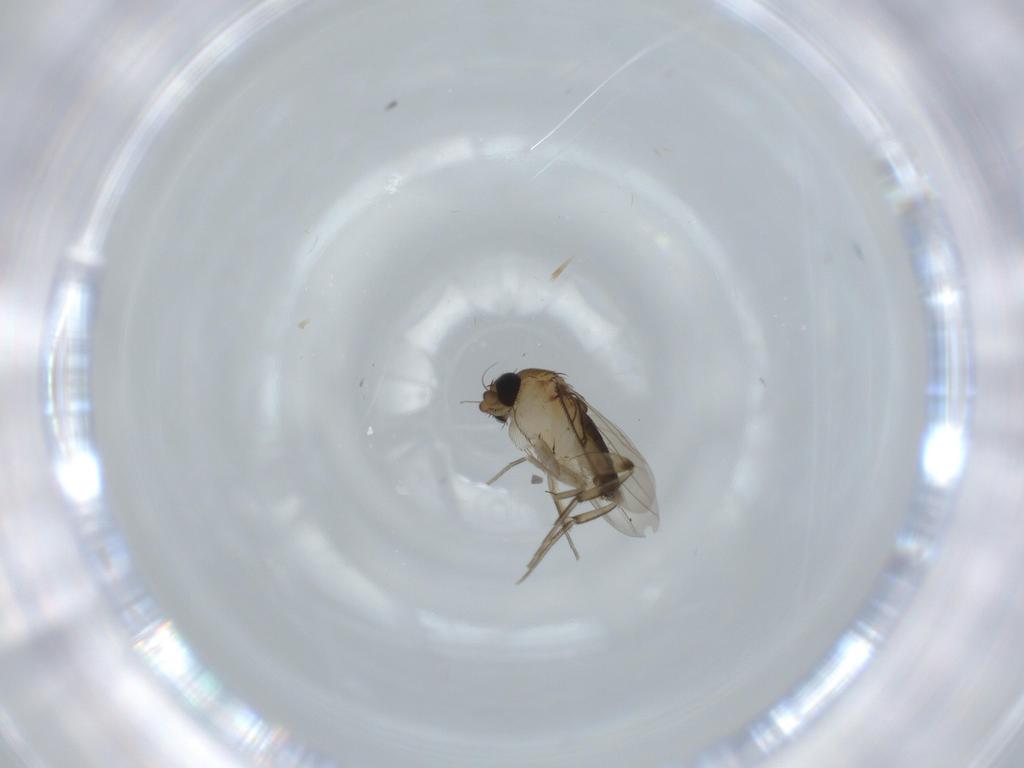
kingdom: Animalia
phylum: Arthropoda
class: Insecta
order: Diptera
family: Phoridae
